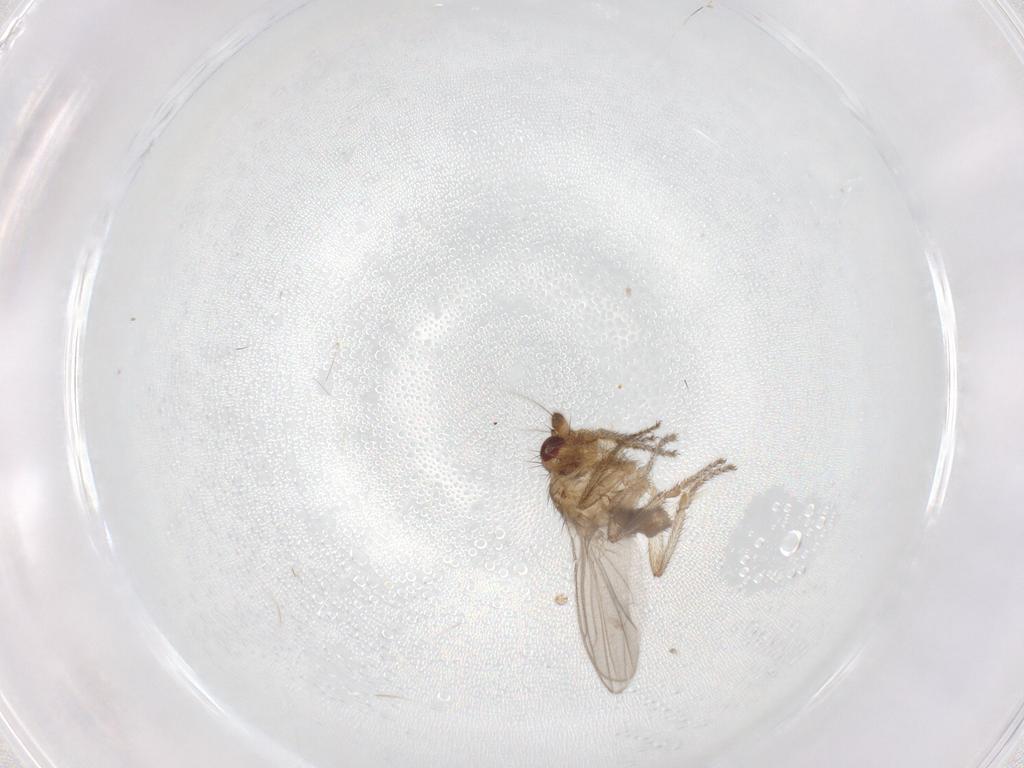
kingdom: Animalia
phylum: Arthropoda
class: Insecta
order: Diptera
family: Sphaeroceridae
